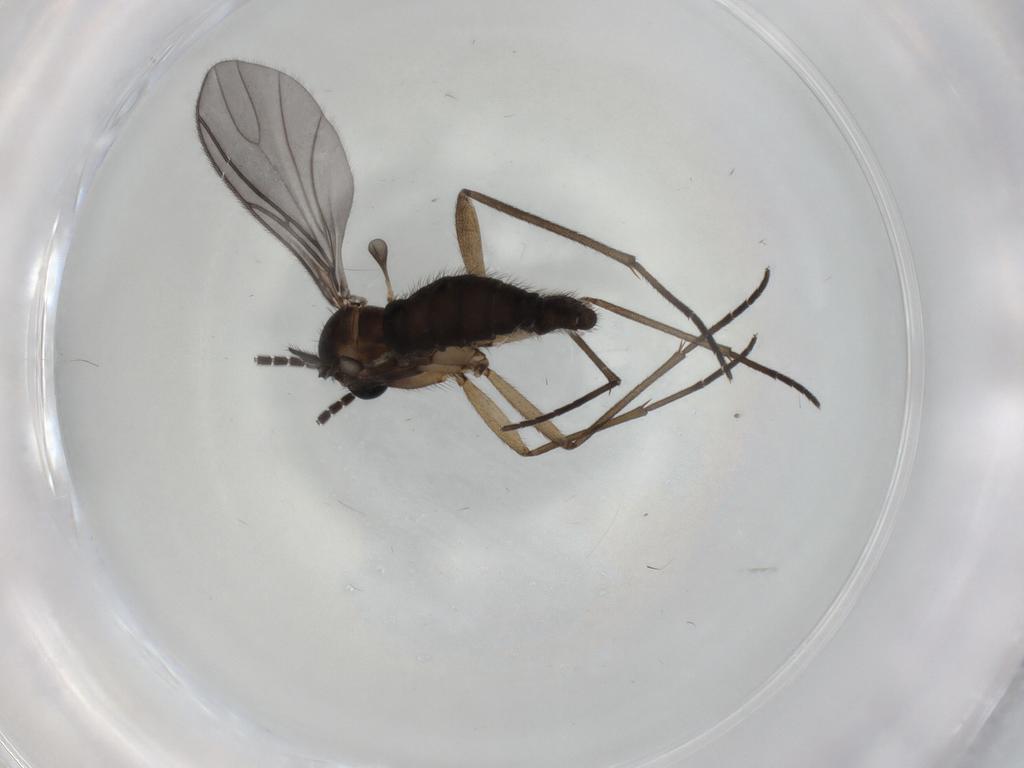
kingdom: Animalia
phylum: Arthropoda
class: Insecta
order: Diptera
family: Sciaridae
